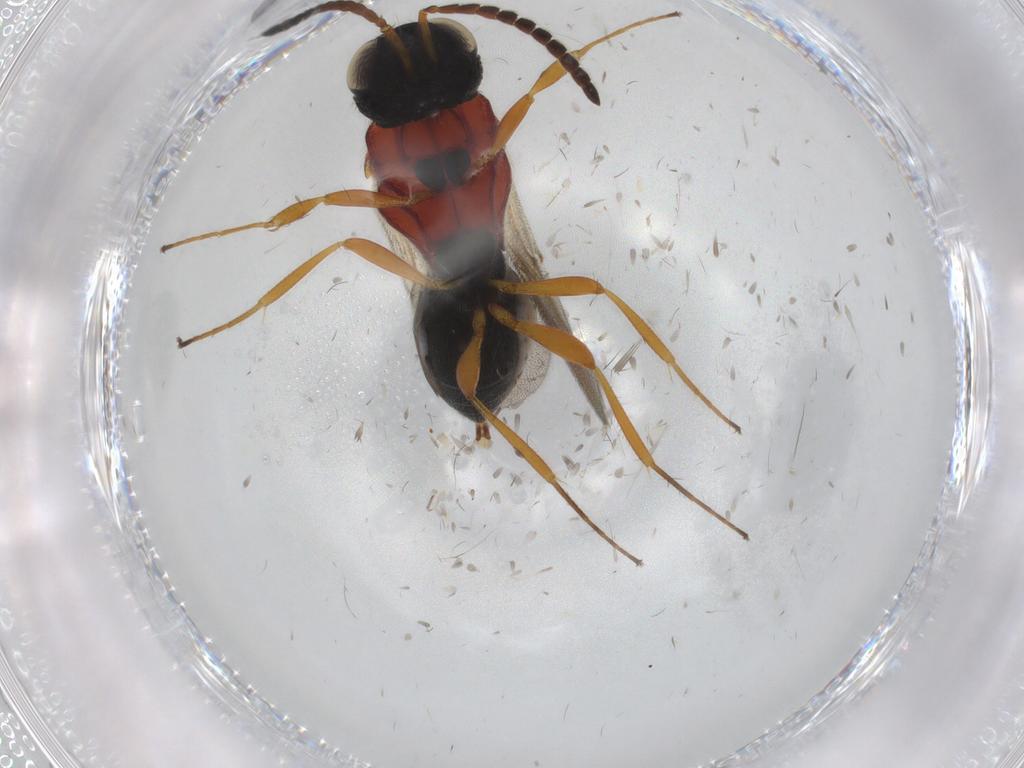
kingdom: Animalia
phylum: Arthropoda
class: Insecta
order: Hymenoptera
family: Scelionidae
